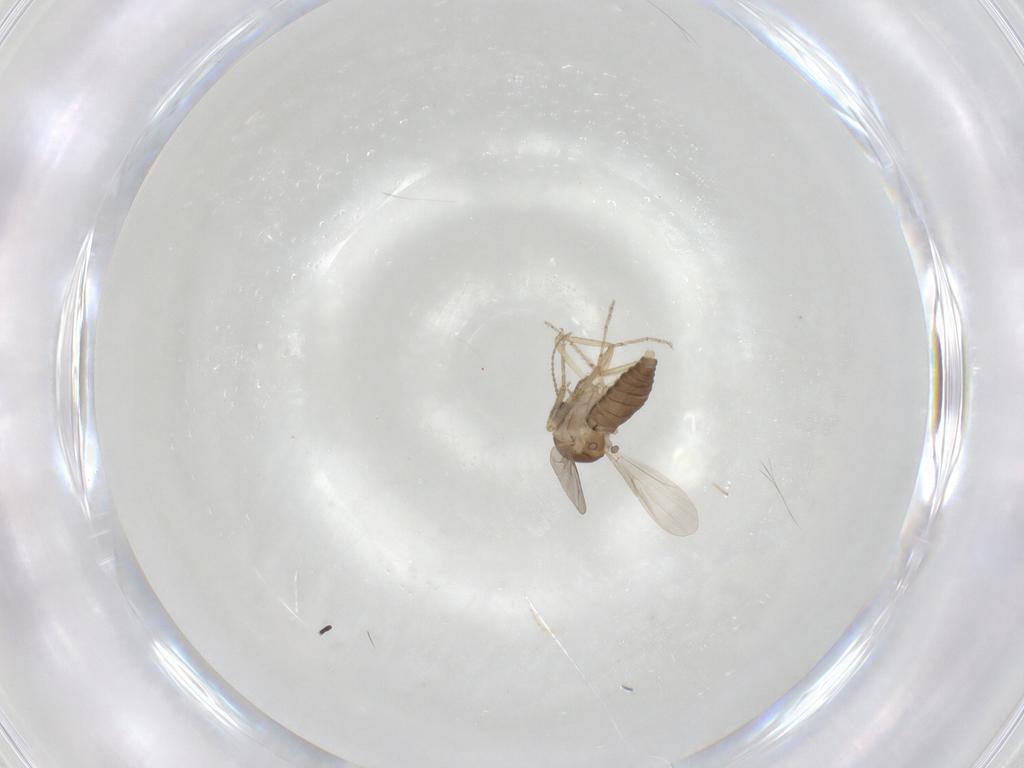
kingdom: Animalia
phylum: Arthropoda
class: Insecta
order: Diptera
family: Ceratopogonidae
